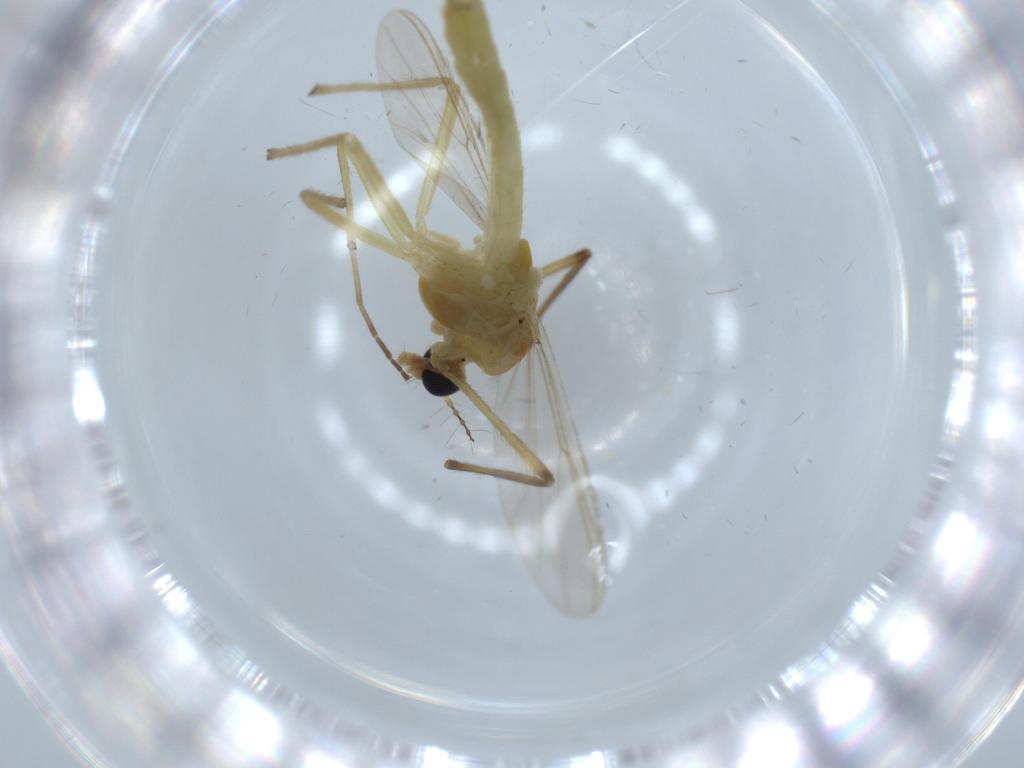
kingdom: Animalia
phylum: Arthropoda
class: Insecta
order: Diptera
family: Psychodidae
